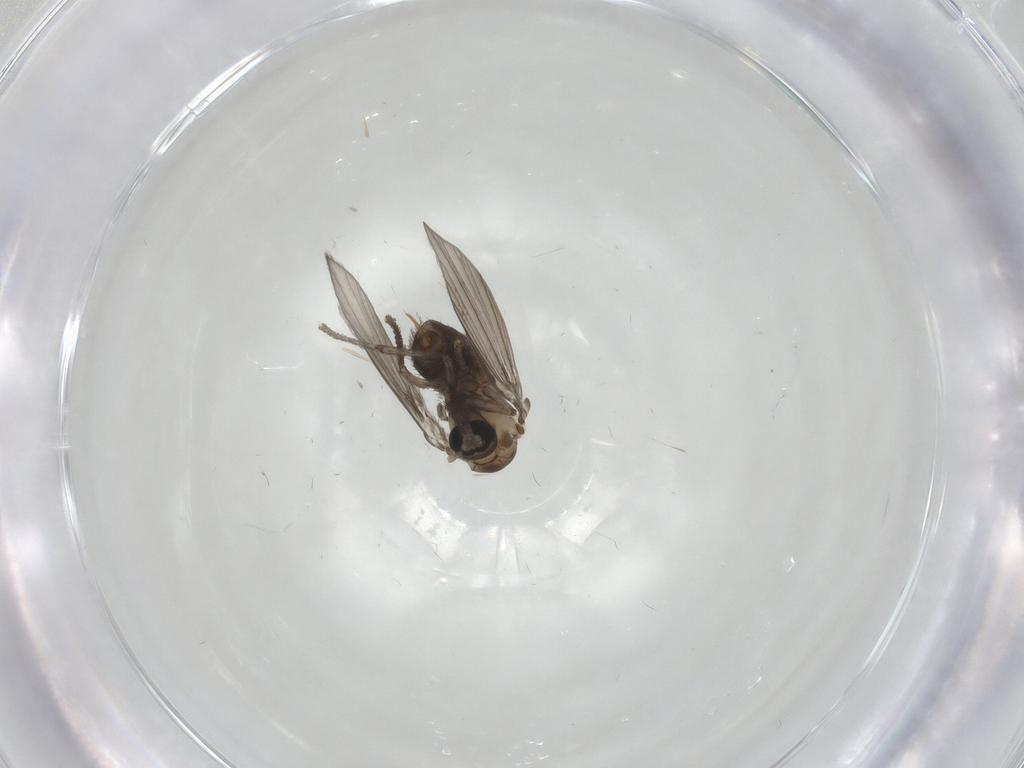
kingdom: Animalia
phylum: Arthropoda
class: Insecta
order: Diptera
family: Psychodidae
